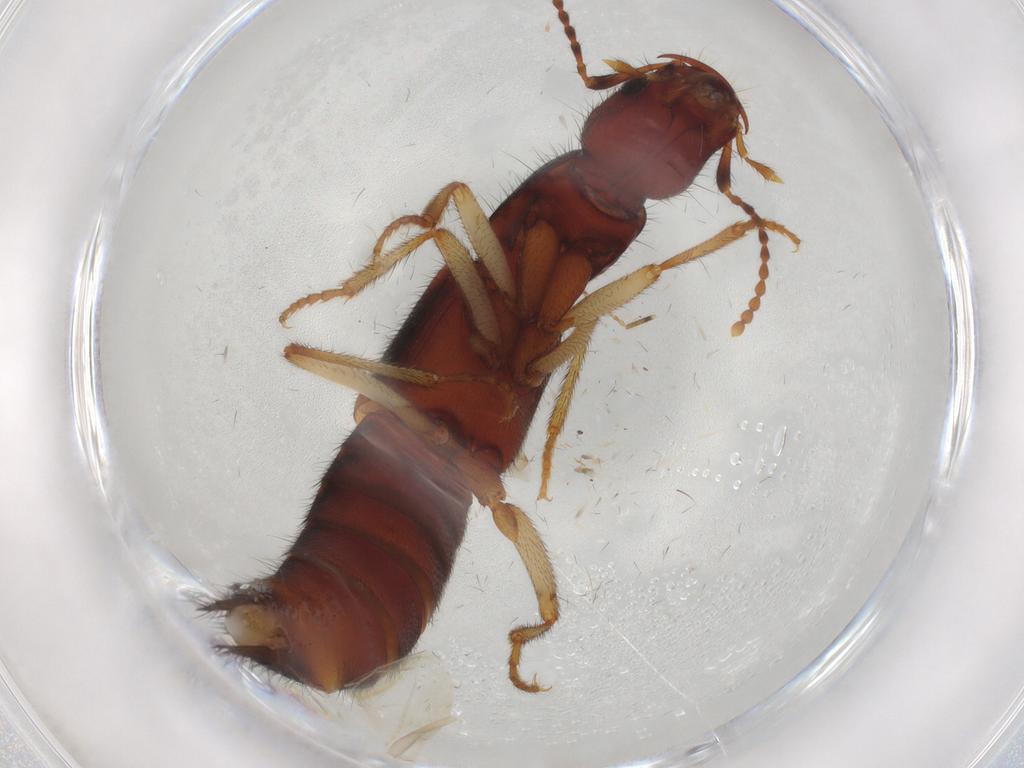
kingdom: Animalia
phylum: Arthropoda
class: Insecta
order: Coleoptera
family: Staphylinidae
